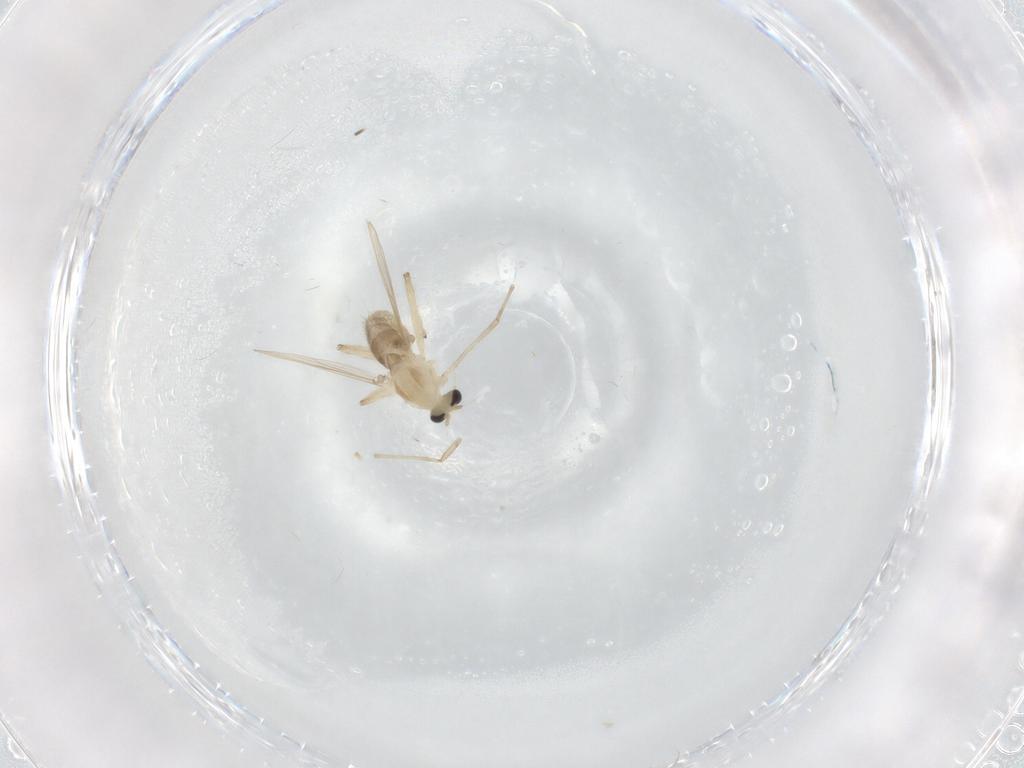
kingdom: Animalia
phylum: Arthropoda
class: Insecta
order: Diptera
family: Chironomidae
